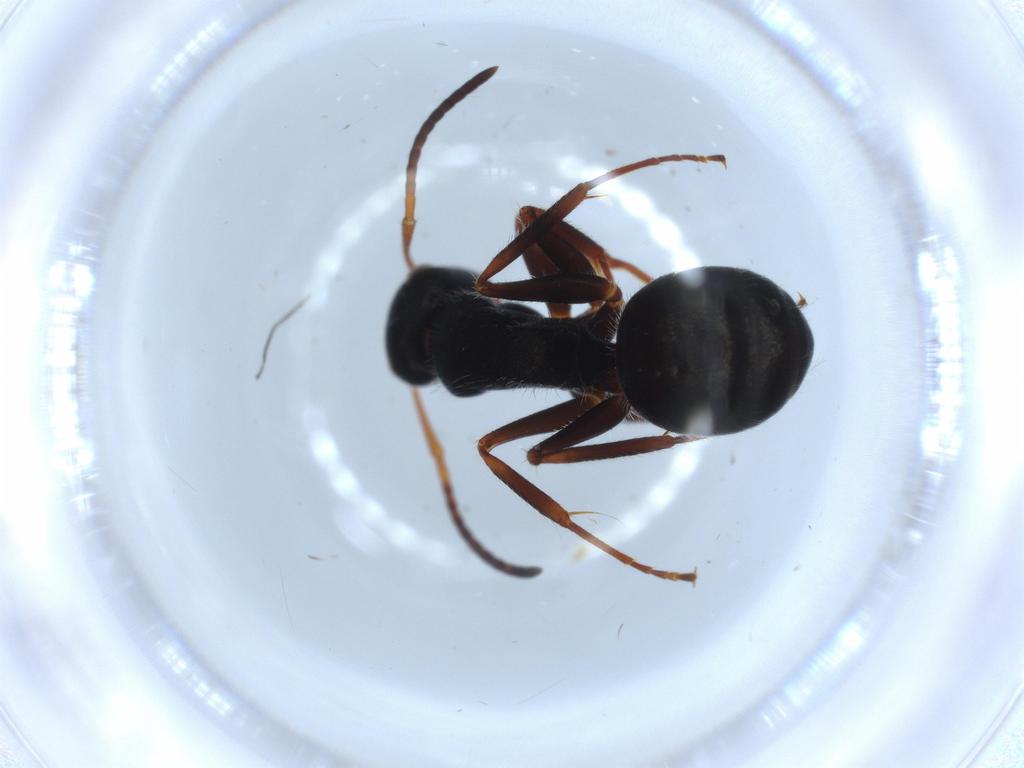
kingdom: Animalia
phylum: Arthropoda
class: Insecta
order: Hymenoptera
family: Formicidae
